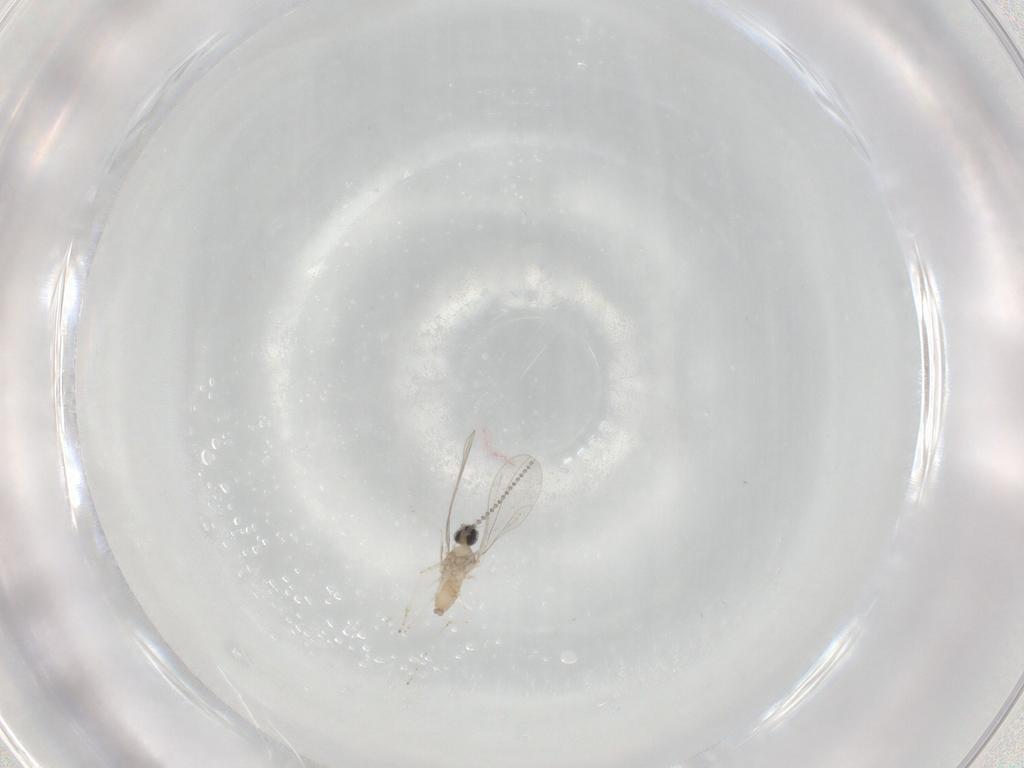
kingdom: Animalia
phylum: Arthropoda
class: Insecta
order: Diptera
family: Cecidomyiidae
